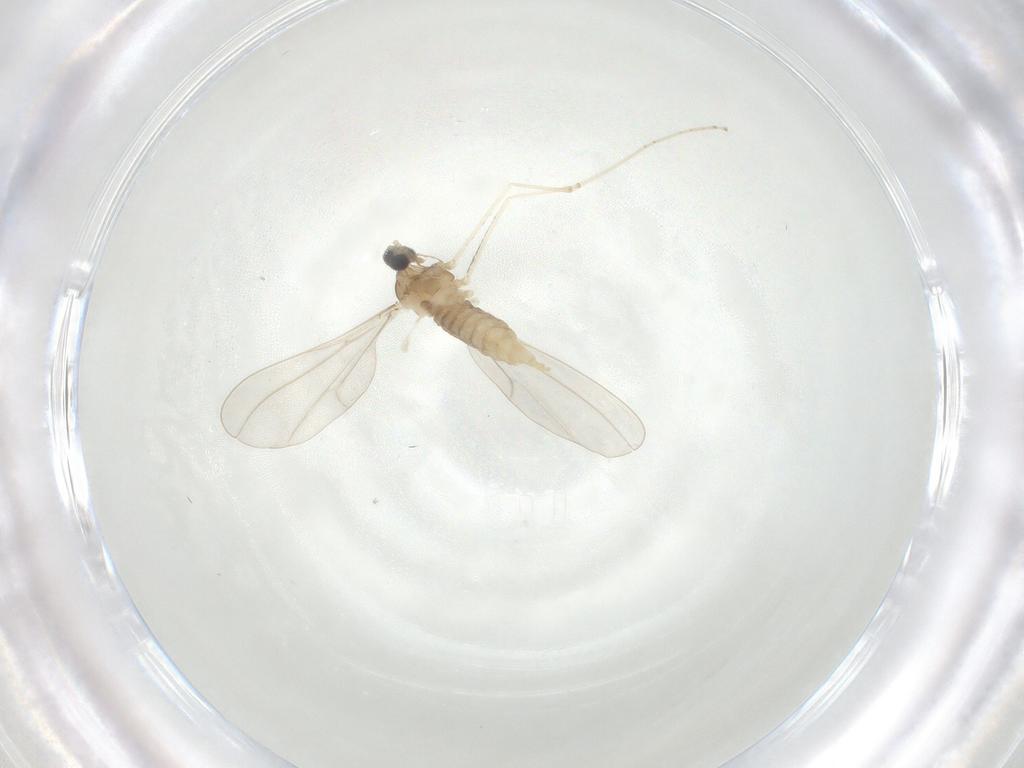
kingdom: Animalia
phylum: Arthropoda
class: Insecta
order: Diptera
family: Cecidomyiidae
